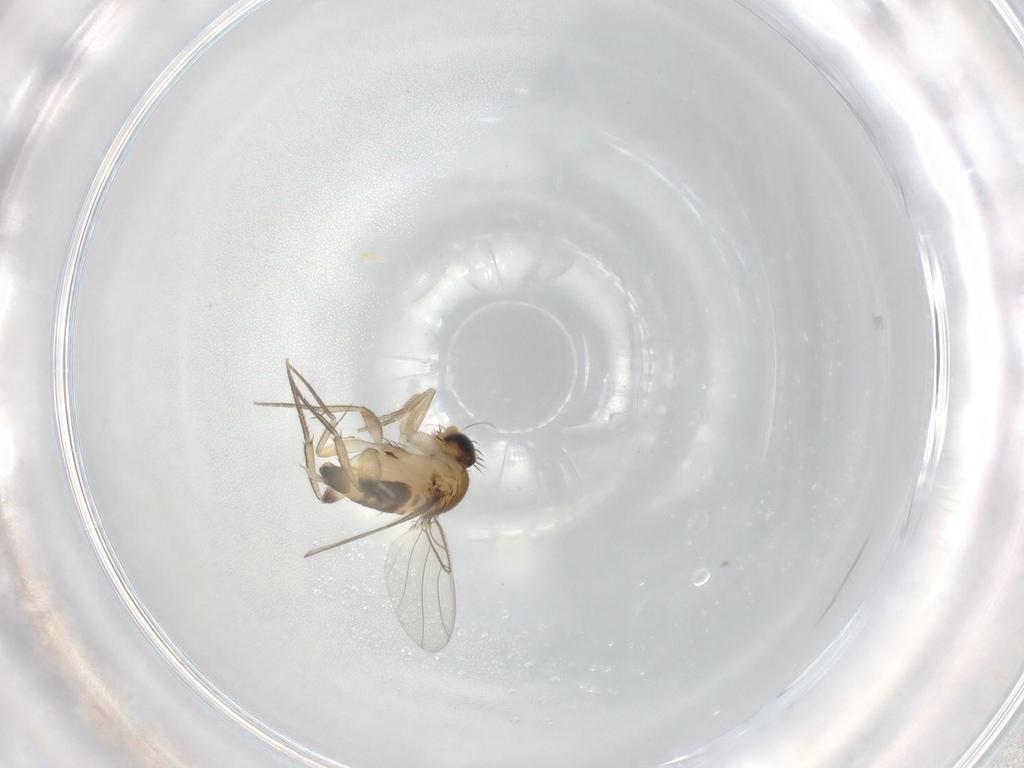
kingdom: Animalia
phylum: Arthropoda
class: Insecta
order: Diptera
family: Phoridae
